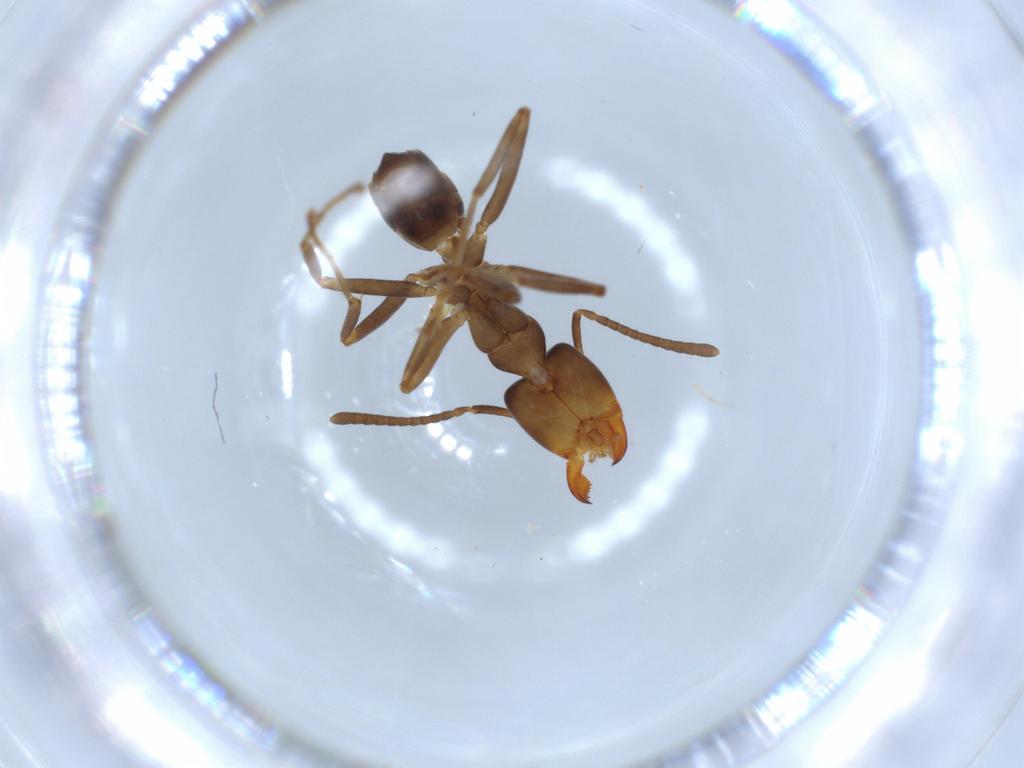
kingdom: Animalia
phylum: Arthropoda
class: Insecta
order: Hymenoptera
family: Formicidae
